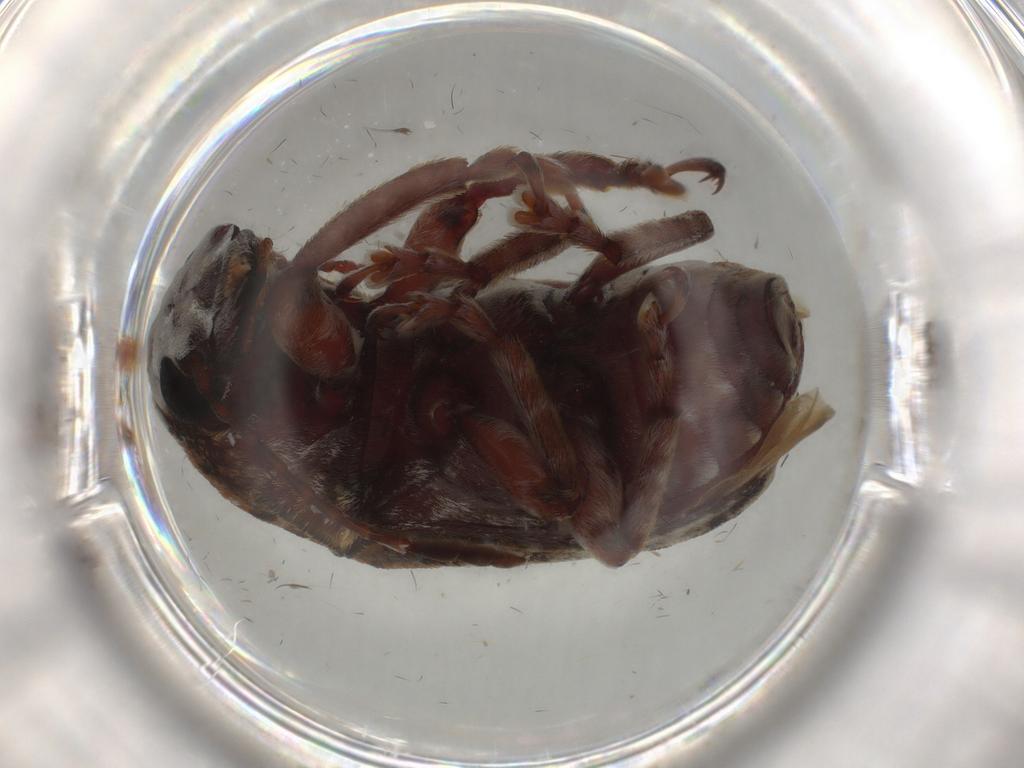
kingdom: Animalia
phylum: Arthropoda
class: Insecta
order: Coleoptera
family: Anthribidae
